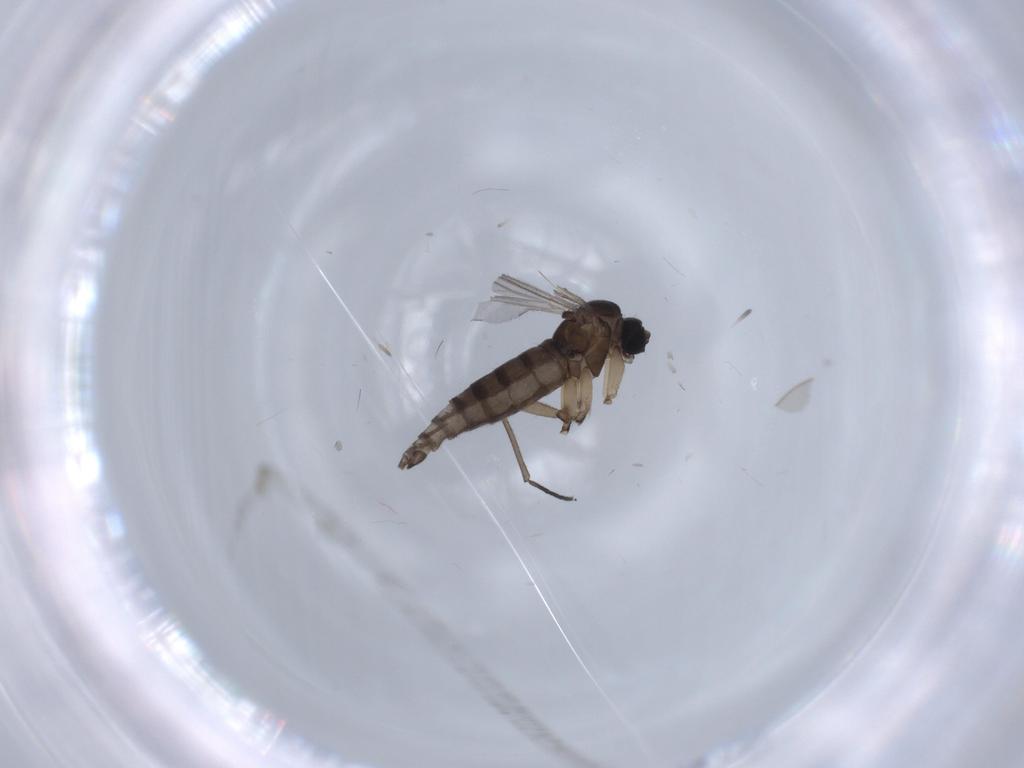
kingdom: Animalia
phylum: Arthropoda
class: Insecta
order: Diptera
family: Sciaridae
